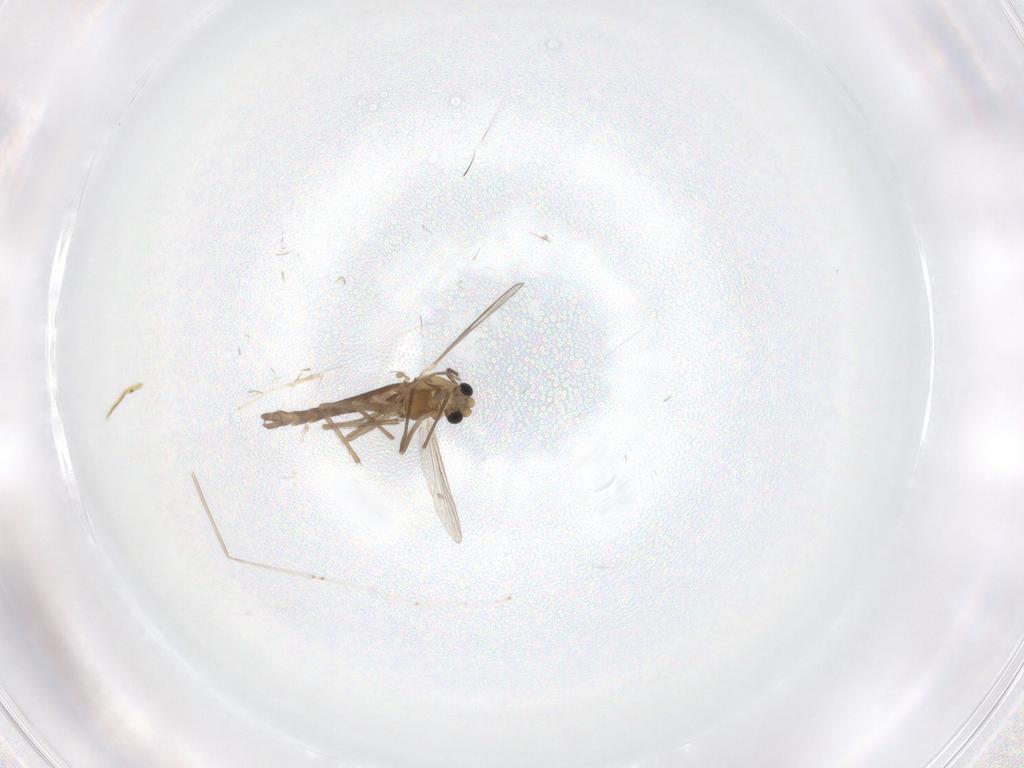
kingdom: Animalia
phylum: Arthropoda
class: Insecta
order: Diptera
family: Chironomidae
